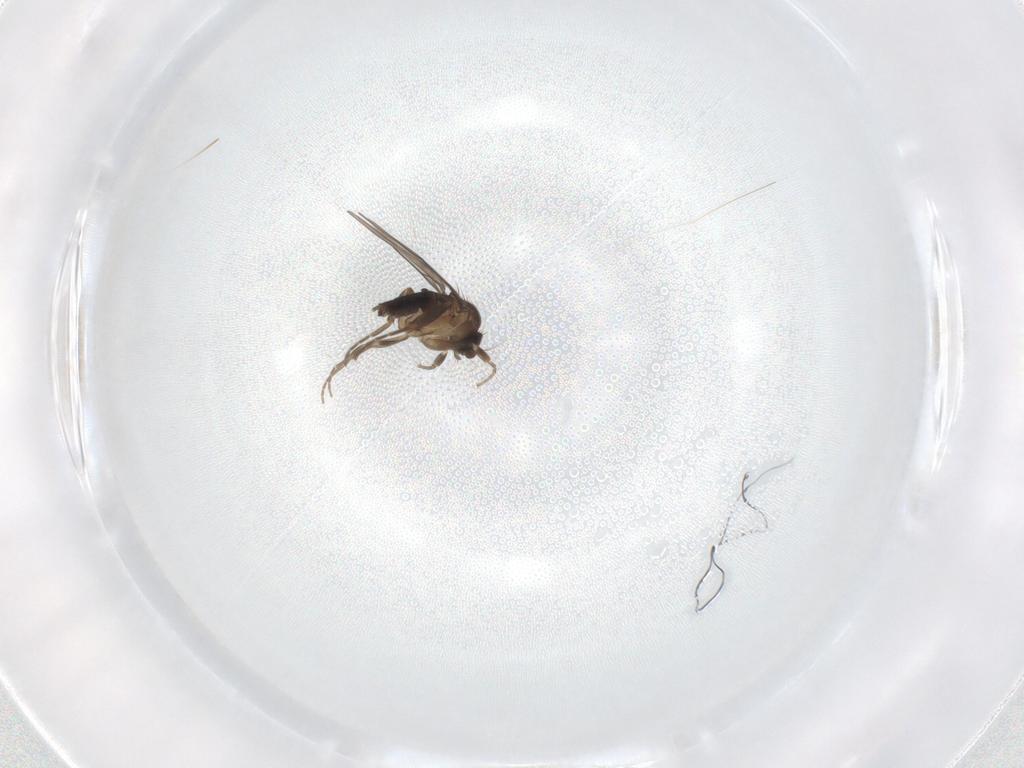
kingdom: Animalia
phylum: Arthropoda
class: Insecta
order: Diptera
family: Phoridae
